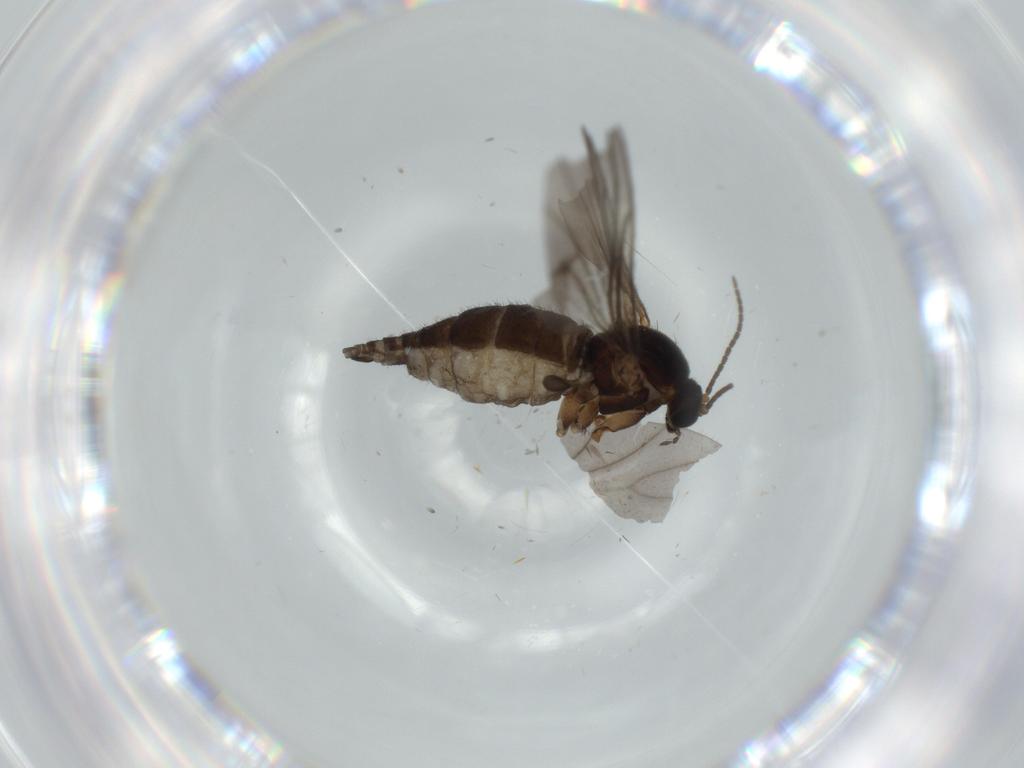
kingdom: Animalia
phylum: Arthropoda
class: Insecta
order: Diptera
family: Sciaridae
